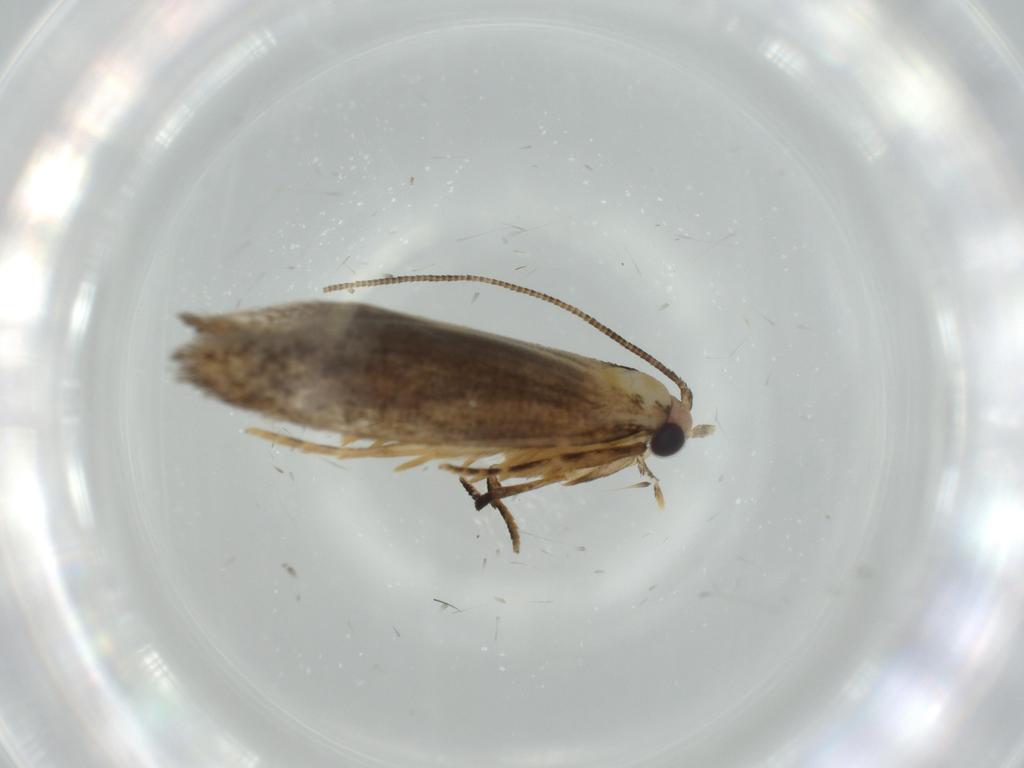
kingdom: Animalia
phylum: Arthropoda
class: Insecta
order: Lepidoptera
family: Tineidae
